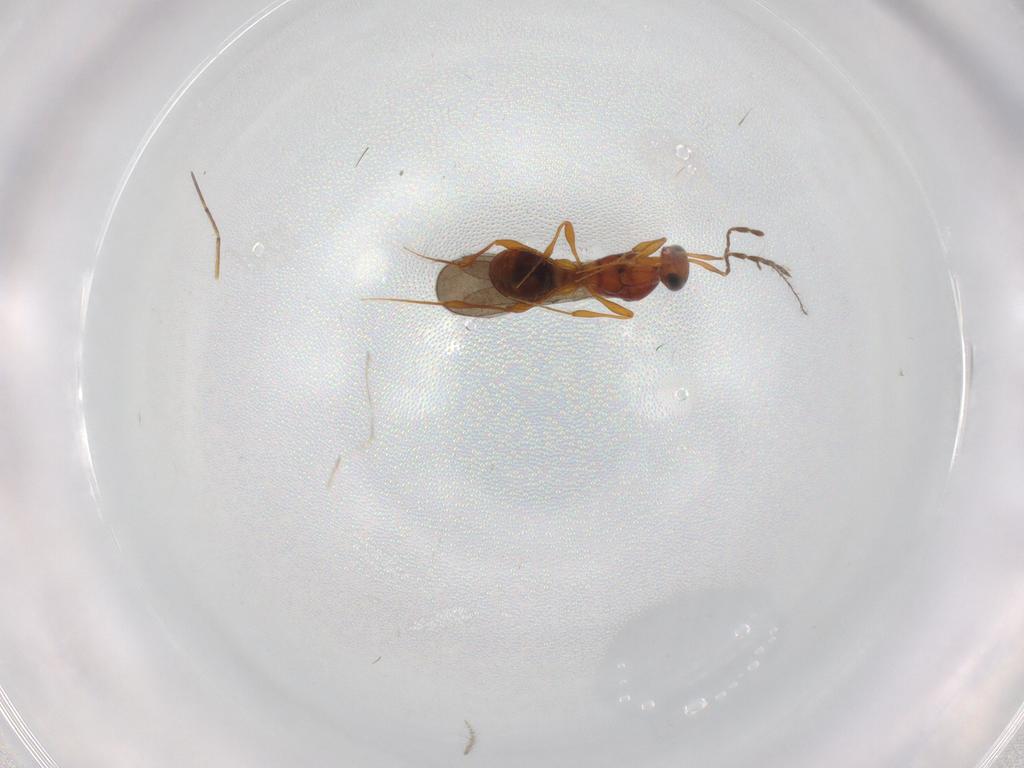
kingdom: Animalia
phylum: Arthropoda
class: Insecta
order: Hymenoptera
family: Platygastridae
